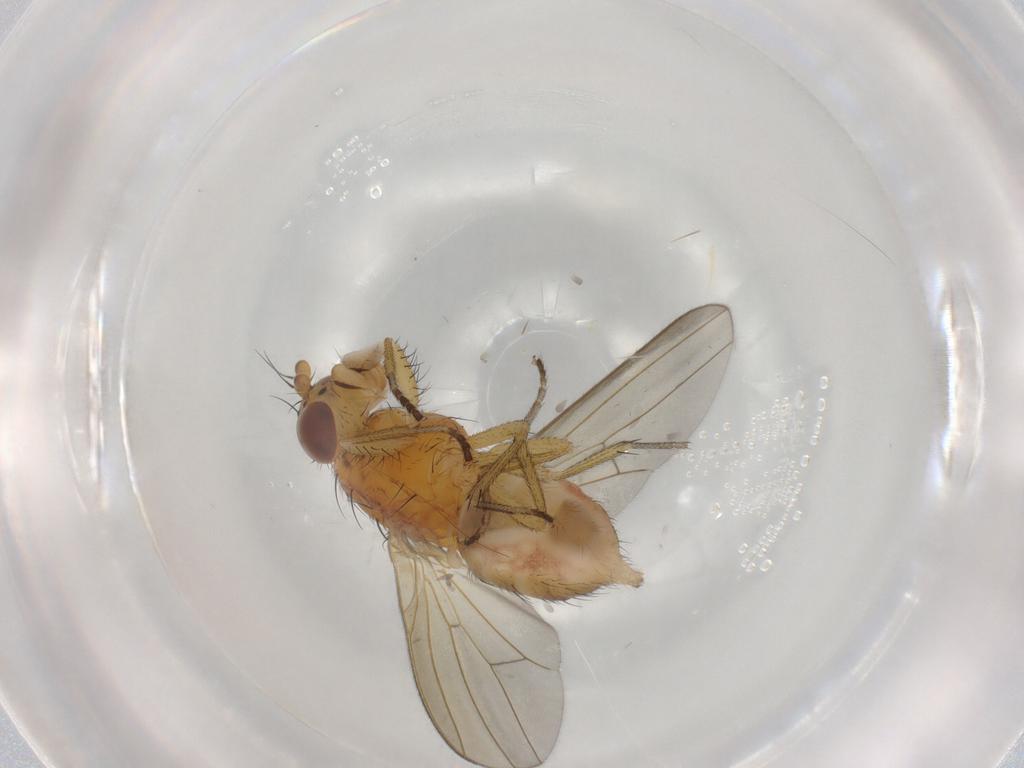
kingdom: Animalia
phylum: Arthropoda
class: Insecta
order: Diptera
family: Lauxaniidae
